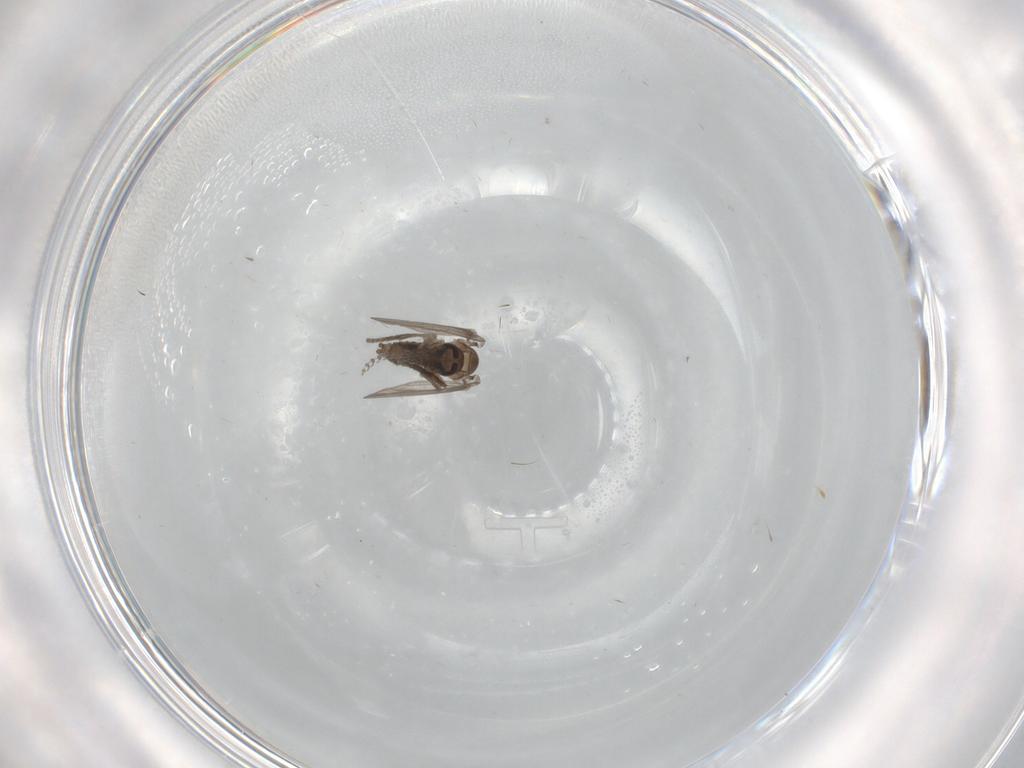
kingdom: Animalia
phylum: Arthropoda
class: Insecta
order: Diptera
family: Psychodidae
